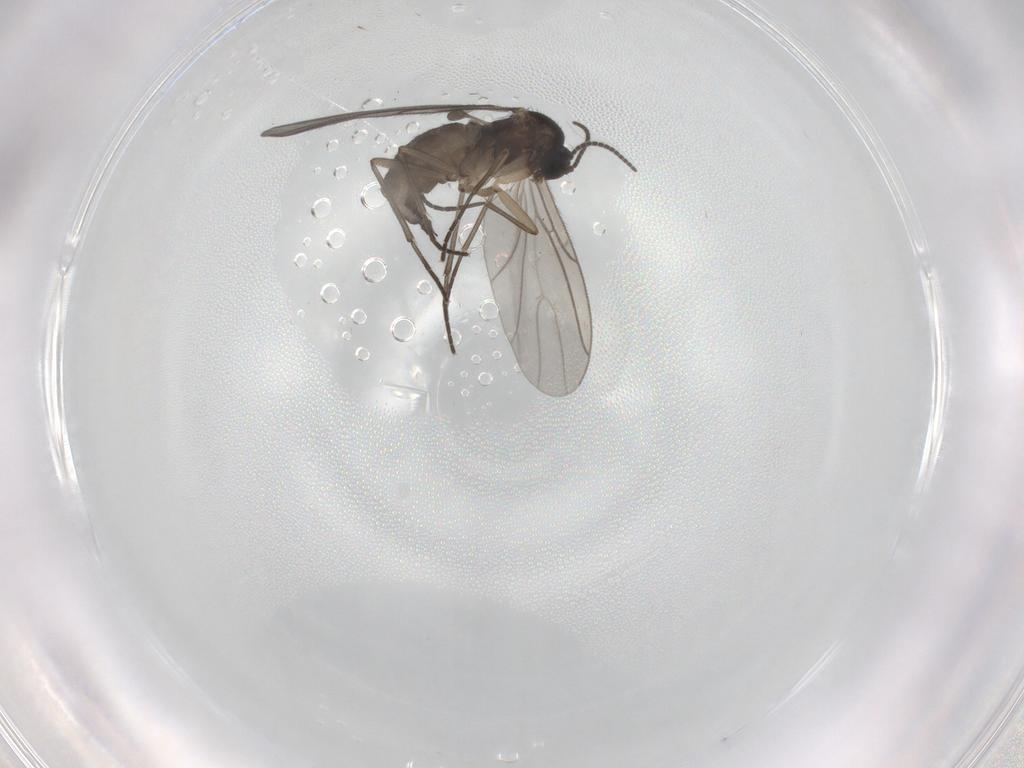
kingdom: Animalia
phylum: Arthropoda
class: Insecta
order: Diptera
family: Sciaridae
